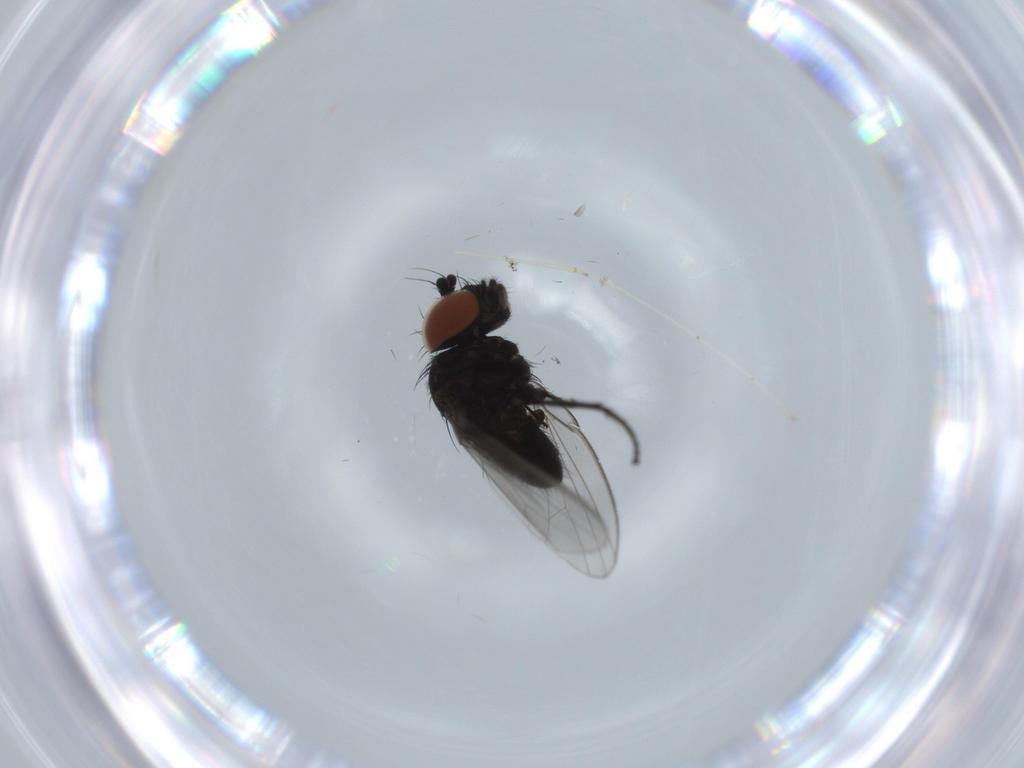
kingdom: Animalia
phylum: Arthropoda
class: Insecta
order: Diptera
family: Milichiidae
